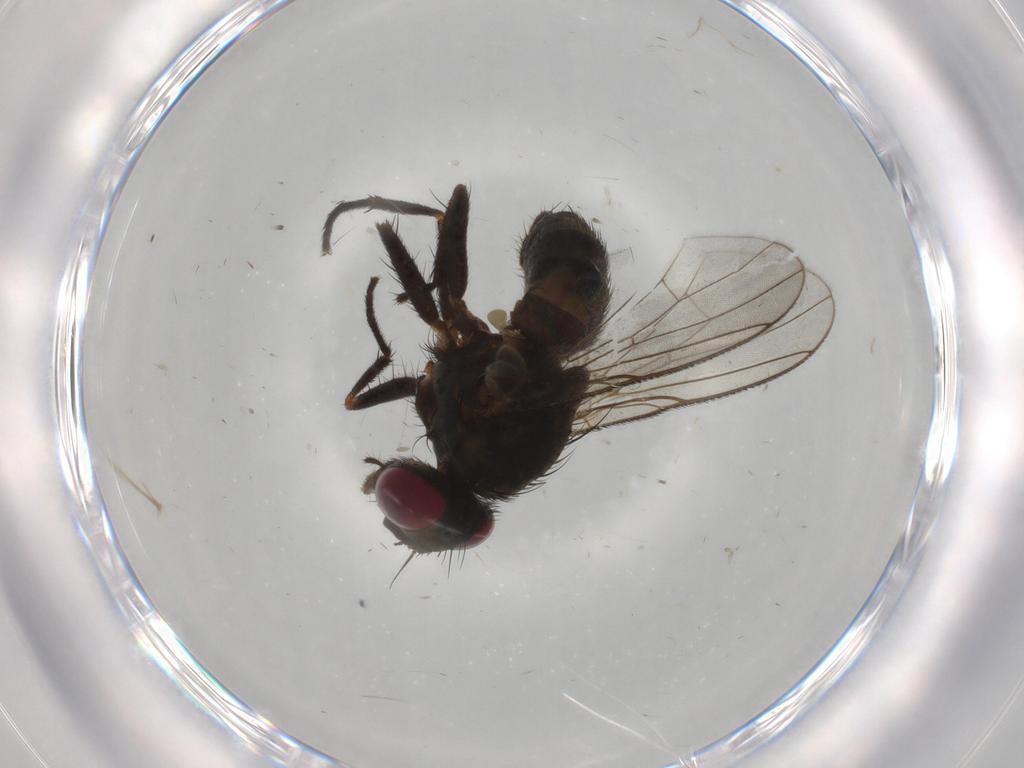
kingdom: Animalia
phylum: Arthropoda
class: Insecta
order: Diptera
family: Muscidae
